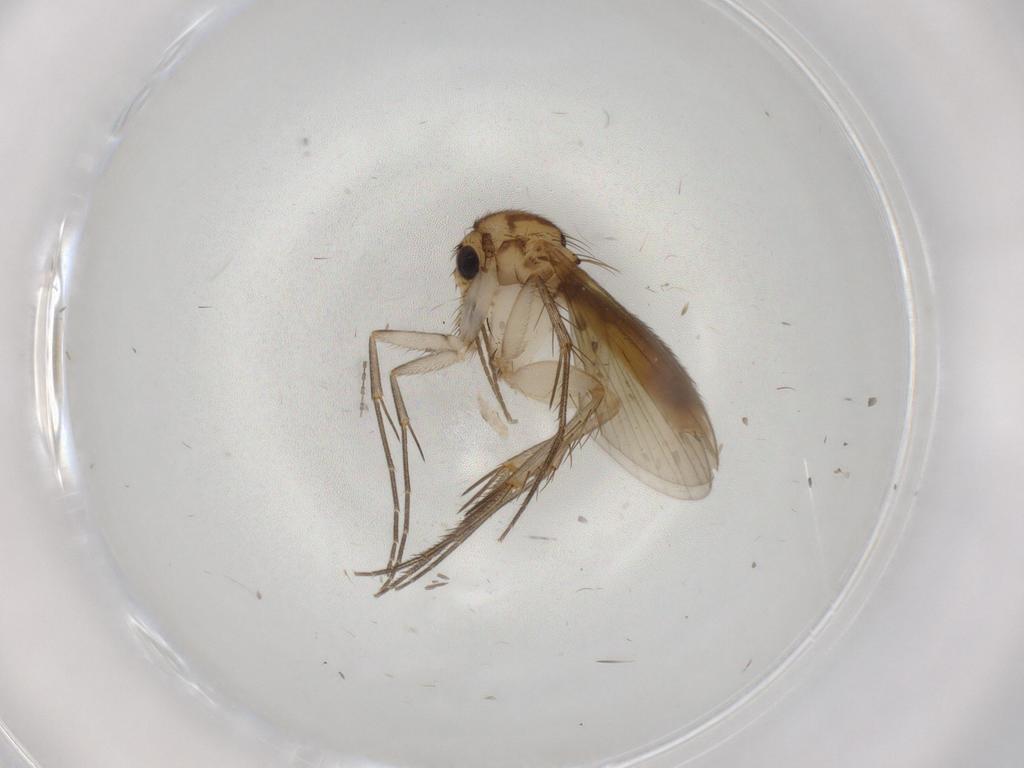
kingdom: Animalia
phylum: Arthropoda
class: Insecta
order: Diptera
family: Mycetophilidae
